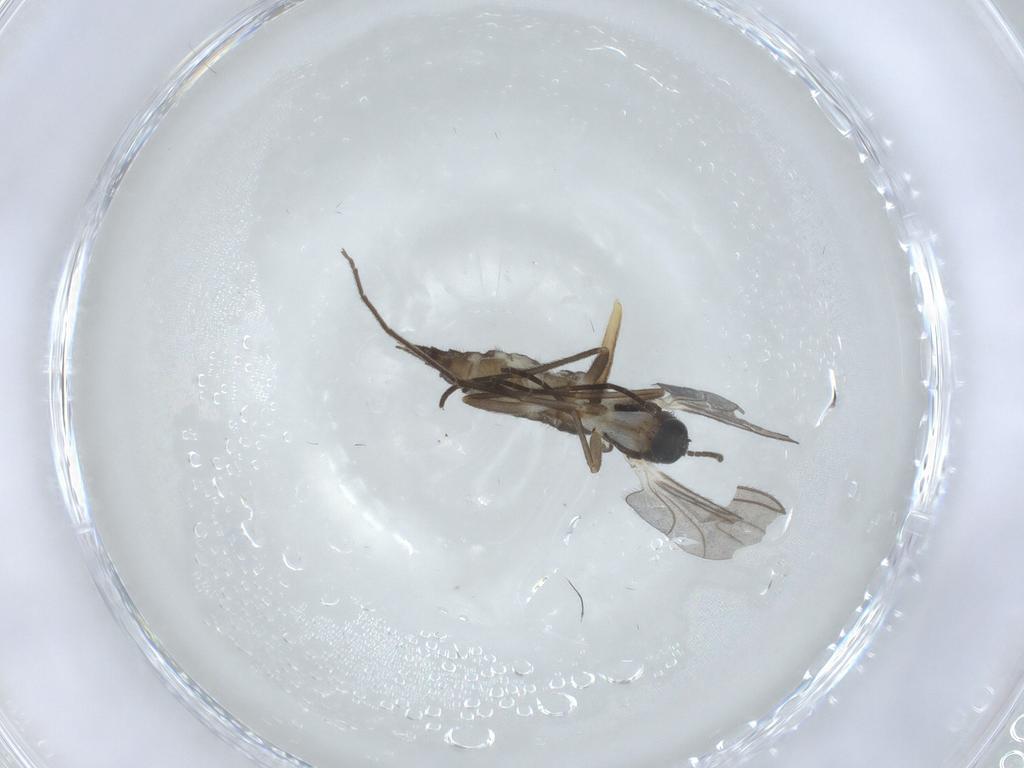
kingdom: Animalia
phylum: Arthropoda
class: Insecta
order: Diptera
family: Sciaridae
